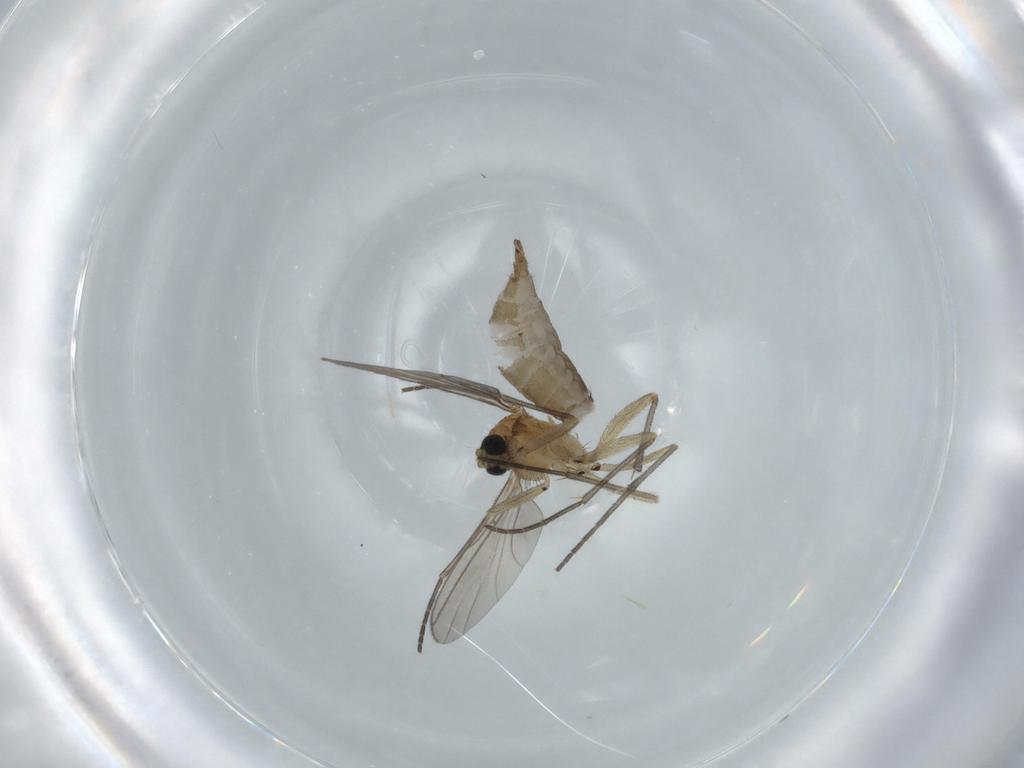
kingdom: Animalia
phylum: Arthropoda
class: Insecta
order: Diptera
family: Sciaridae
